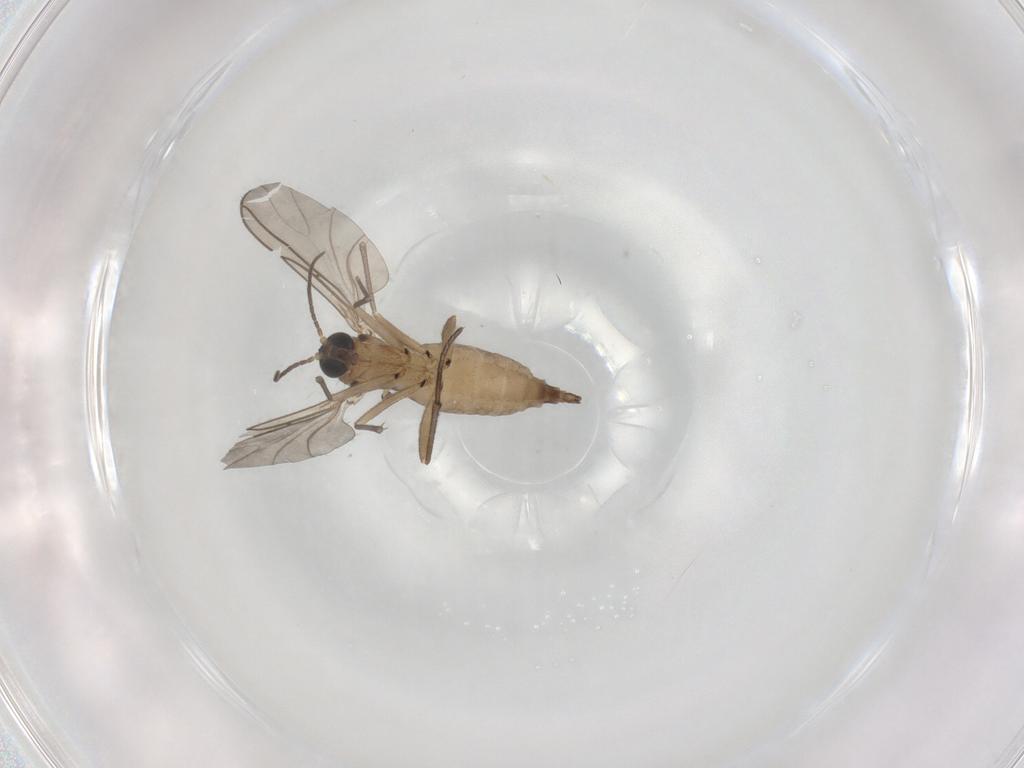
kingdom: Animalia
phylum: Arthropoda
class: Insecta
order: Diptera
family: Sciaridae
